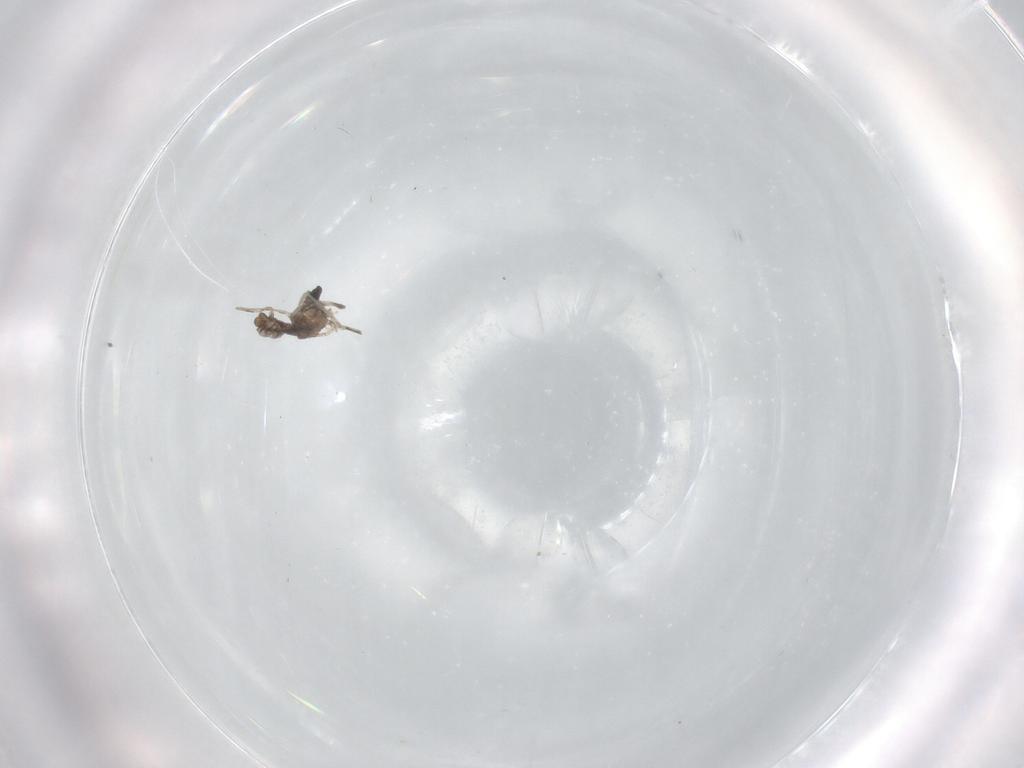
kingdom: Animalia
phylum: Arthropoda
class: Insecta
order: Diptera
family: Cecidomyiidae
